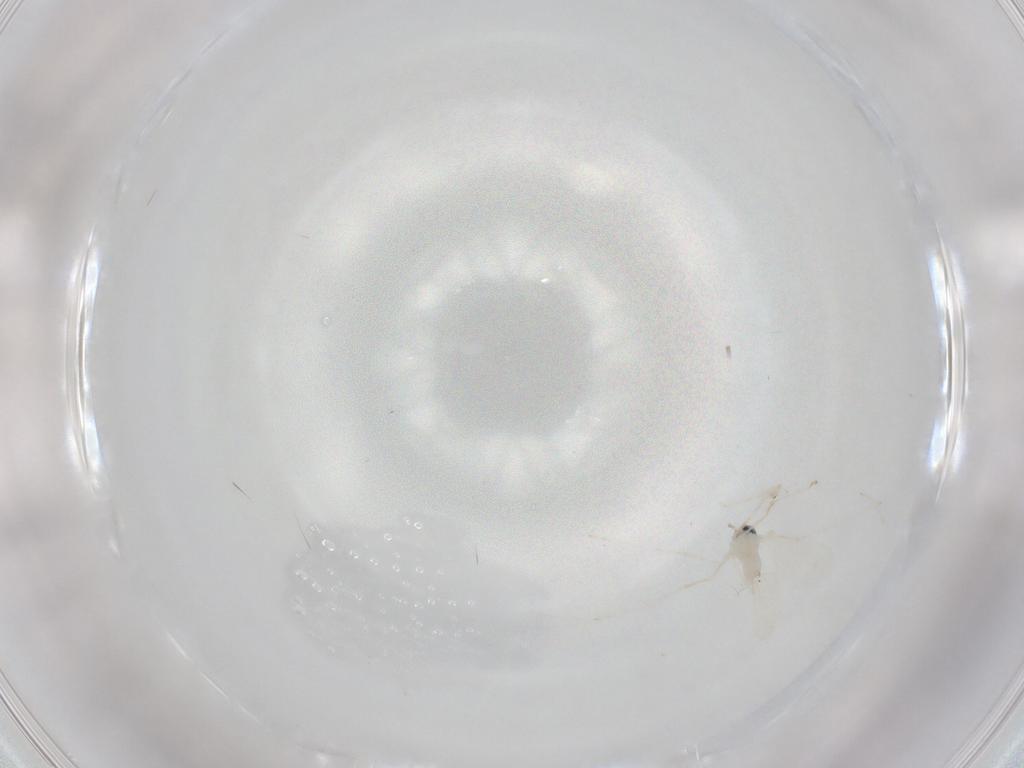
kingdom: Animalia
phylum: Arthropoda
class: Insecta
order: Diptera
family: Cecidomyiidae
